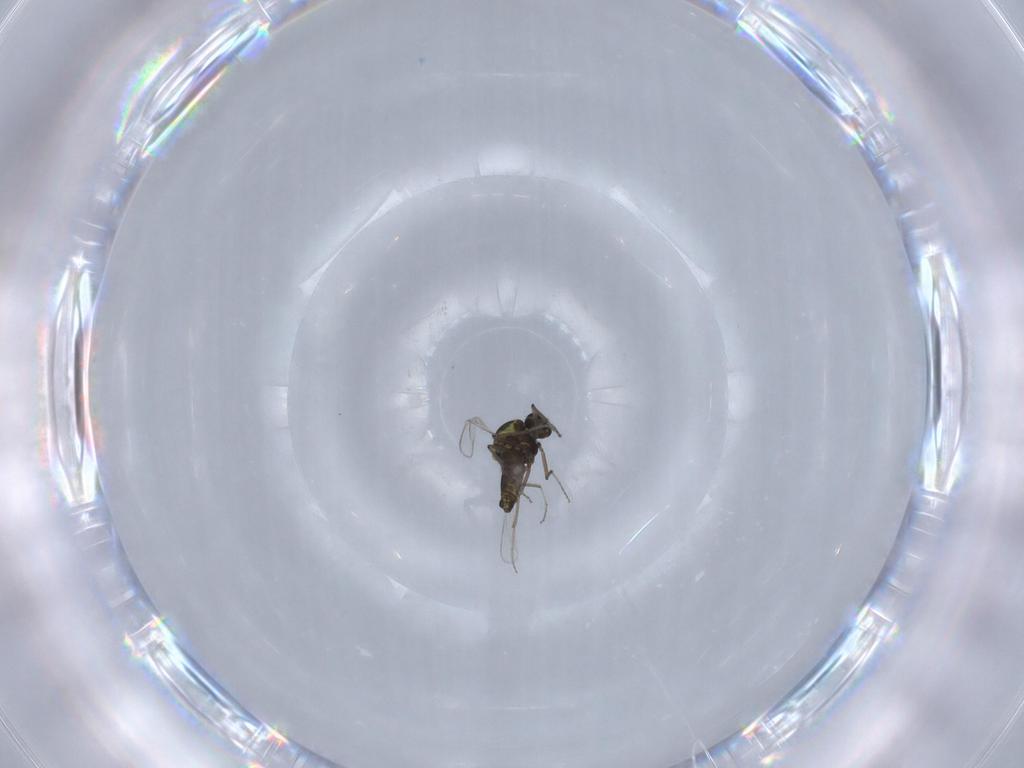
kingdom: Animalia
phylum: Arthropoda
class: Insecta
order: Diptera
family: Ceratopogonidae
